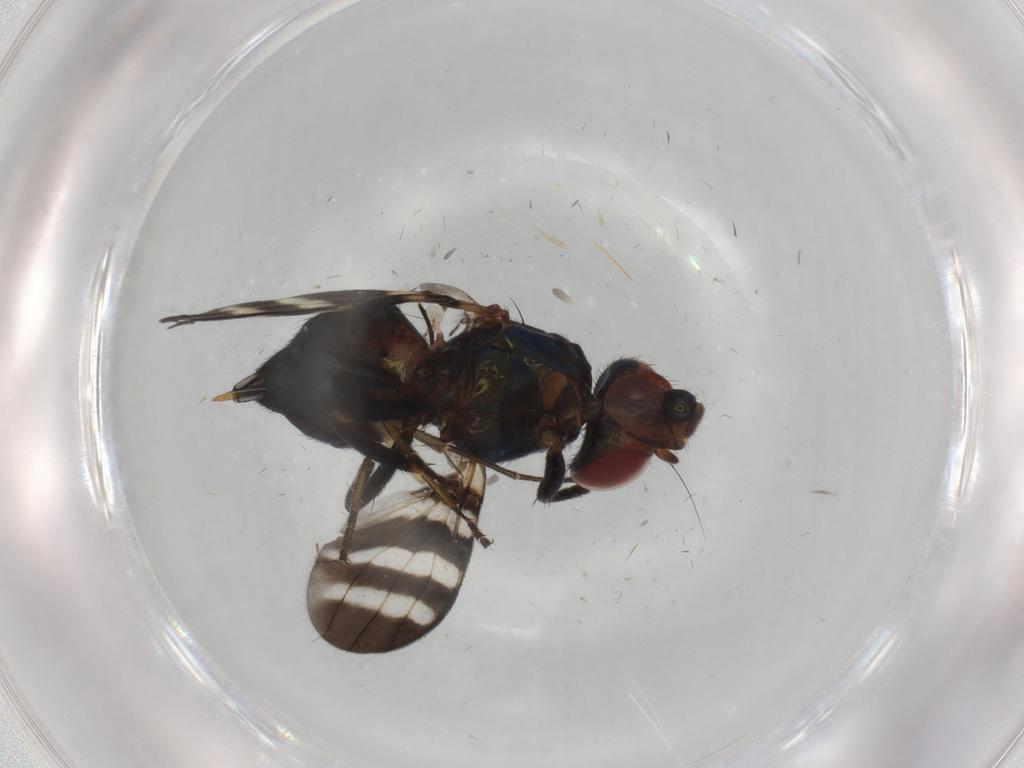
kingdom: Animalia
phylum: Arthropoda
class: Insecta
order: Diptera
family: Ulidiidae
